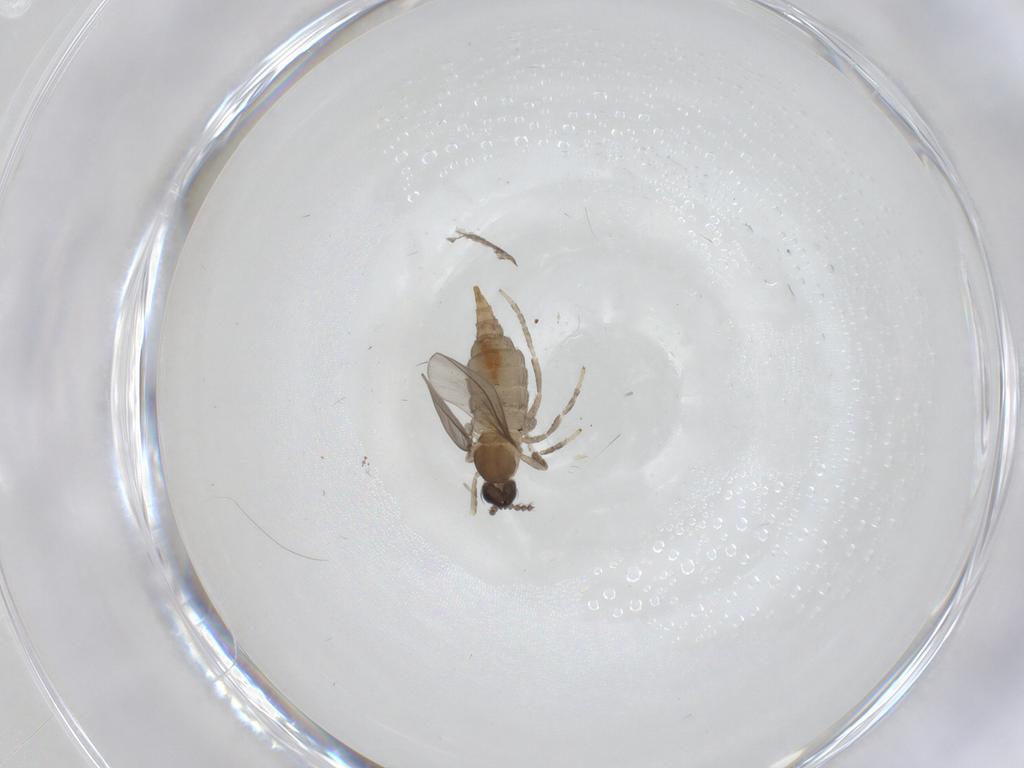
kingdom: Animalia
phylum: Arthropoda
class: Insecta
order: Diptera
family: Cecidomyiidae
